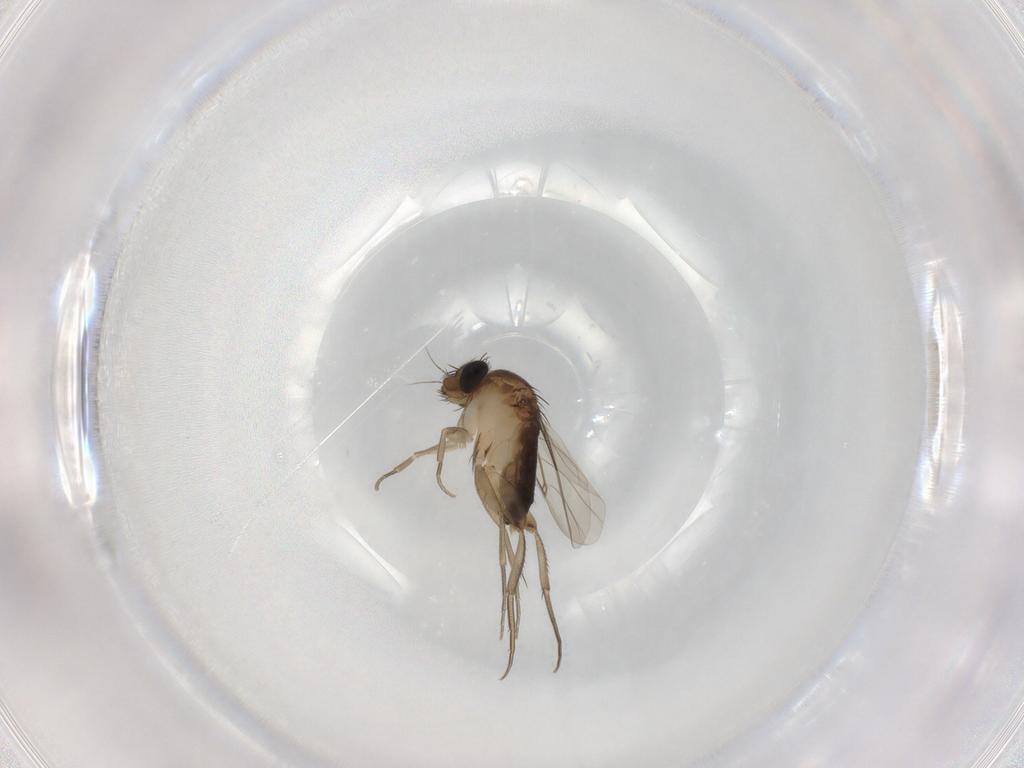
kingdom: Animalia
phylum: Arthropoda
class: Insecta
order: Diptera
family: Phoridae
